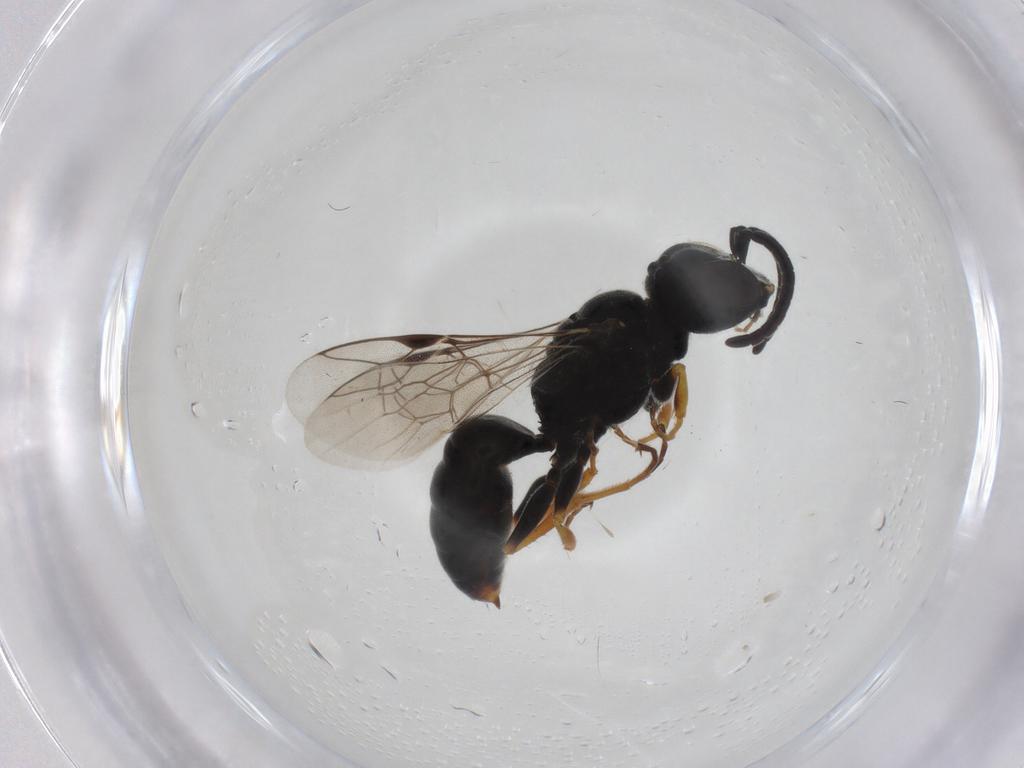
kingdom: Animalia
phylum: Arthropoda
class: Insecta
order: Hymenoptera
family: Pemphredonidae
